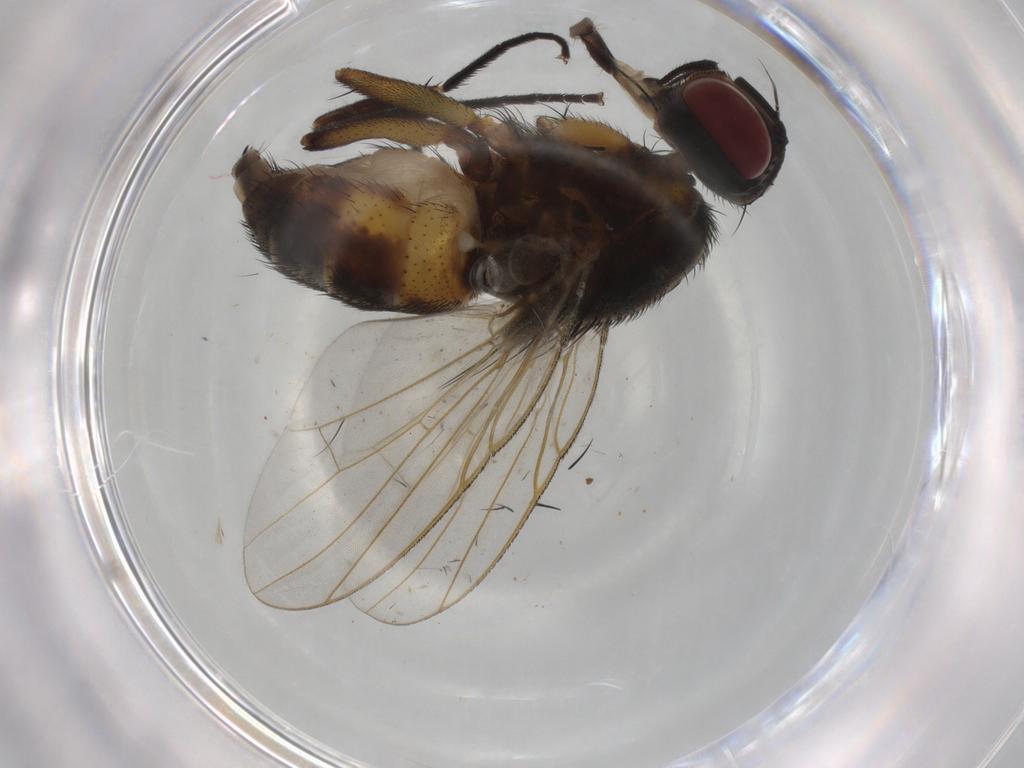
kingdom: Animalia
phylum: Arthropoda
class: Insecta
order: Diptera
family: Muscidae
